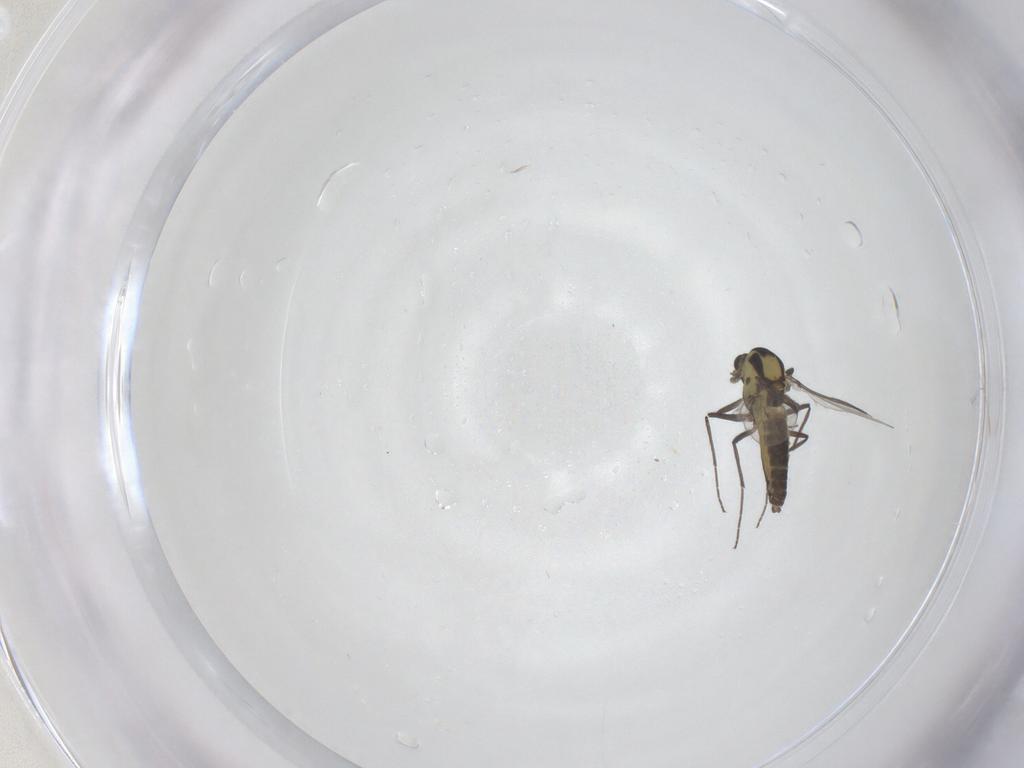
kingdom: Animalia
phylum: Arthropoda
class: Insecta
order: Diptera
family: Chironomidae
